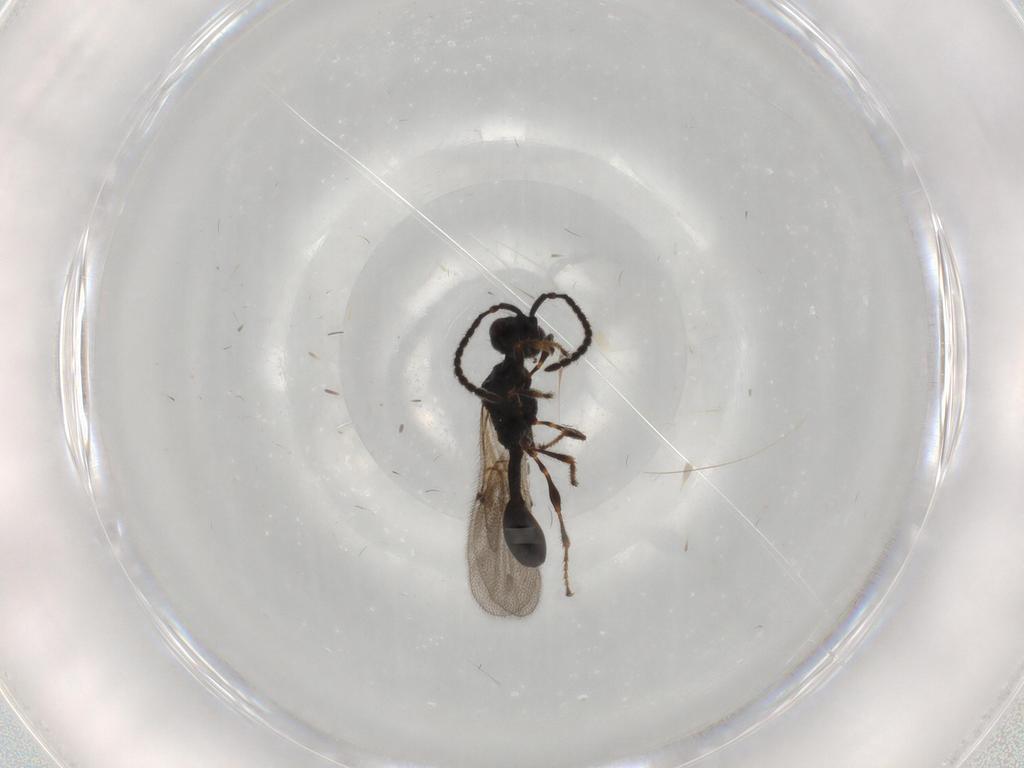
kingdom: Animalia
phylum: Arthropoda
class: Insecta
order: Hymenoptera
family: Diapriidae
